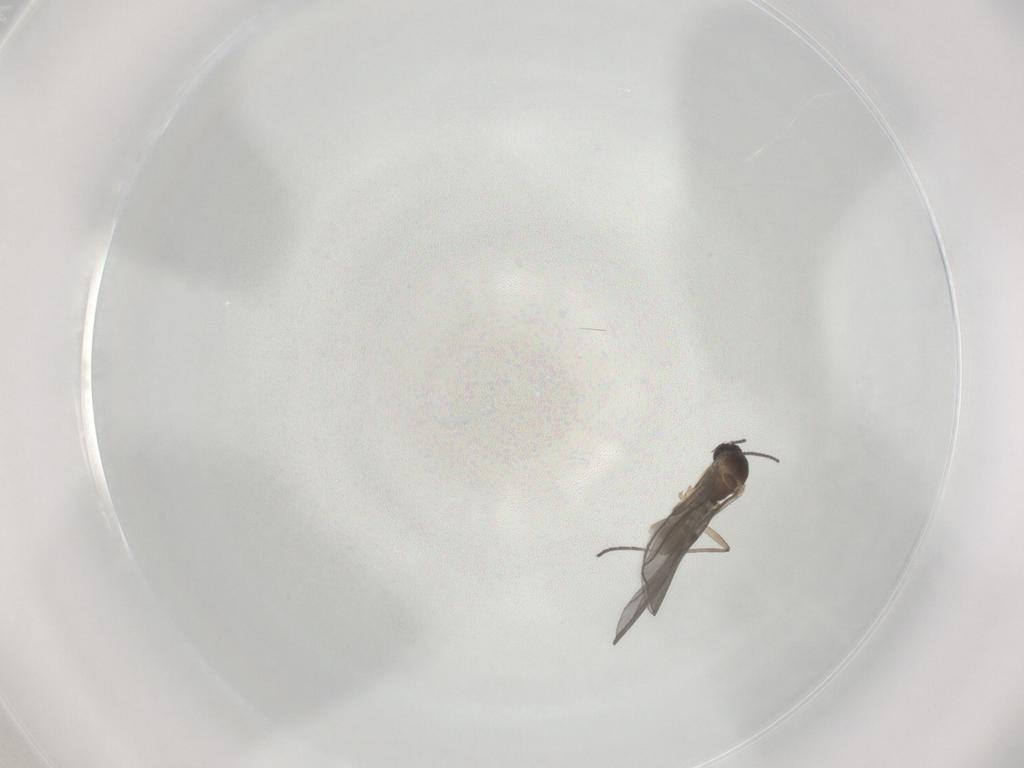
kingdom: Animalia
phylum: Arthropoda
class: Insecta
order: Diptera
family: Sciaridae
